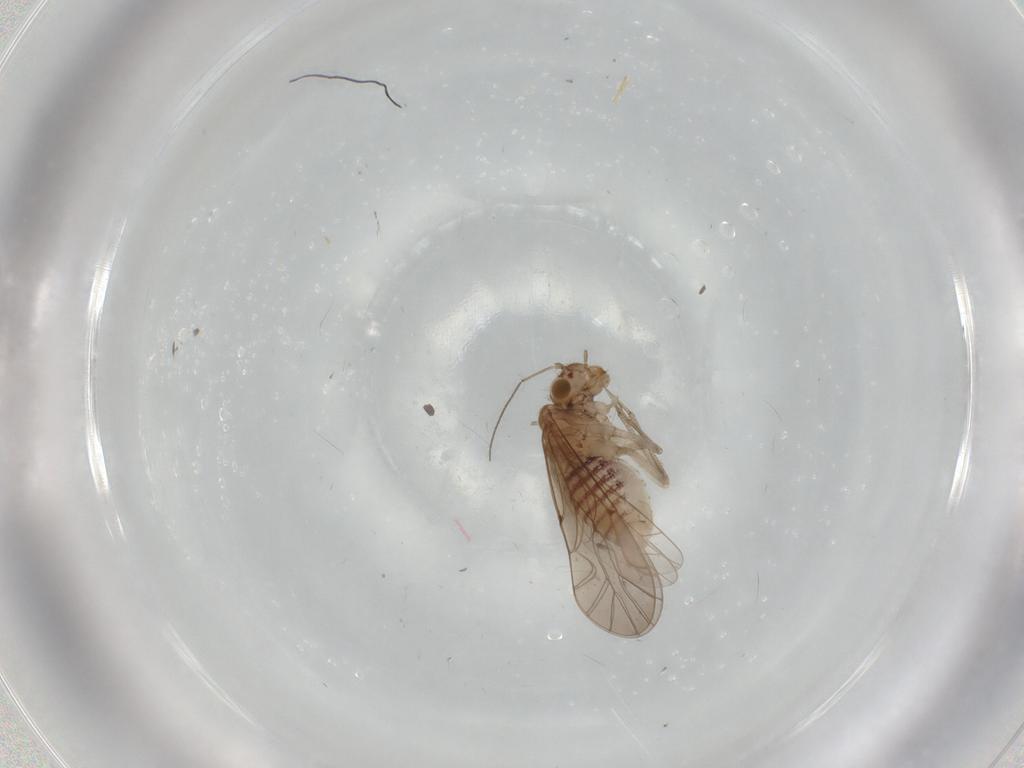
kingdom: Animalia
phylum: Arthropoda
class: Insecta
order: Psocodea
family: Lachesillidae
